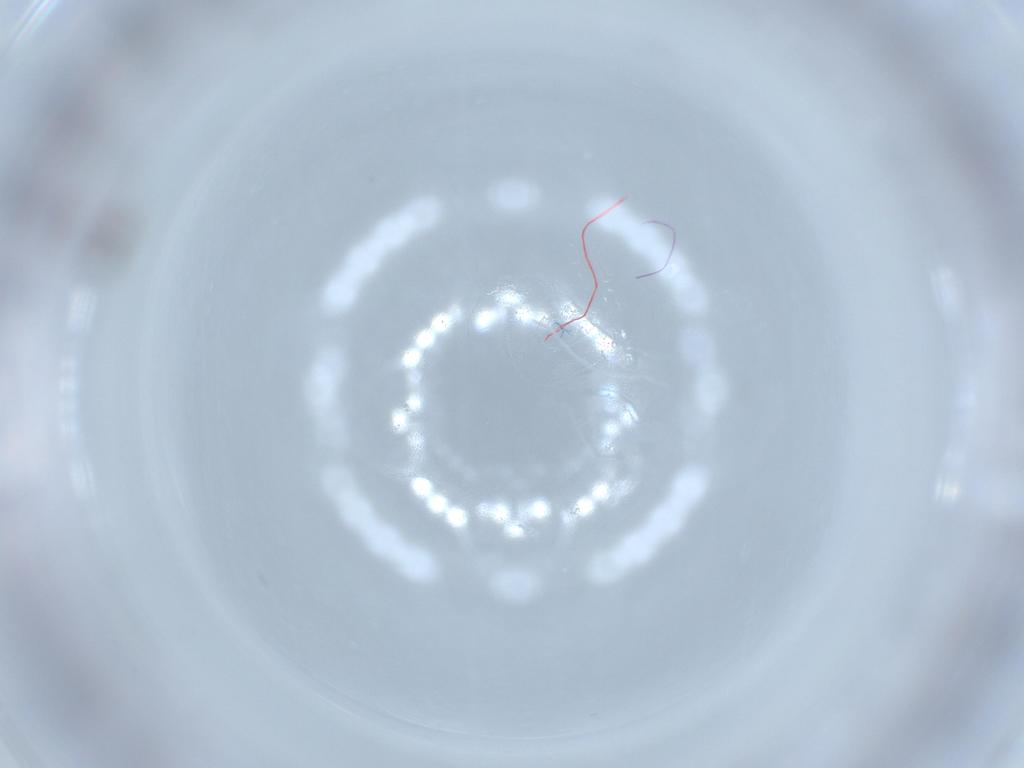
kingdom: Animalia
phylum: Arthropoda
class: Insecta
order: Diptera
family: Cecidomyiidae
